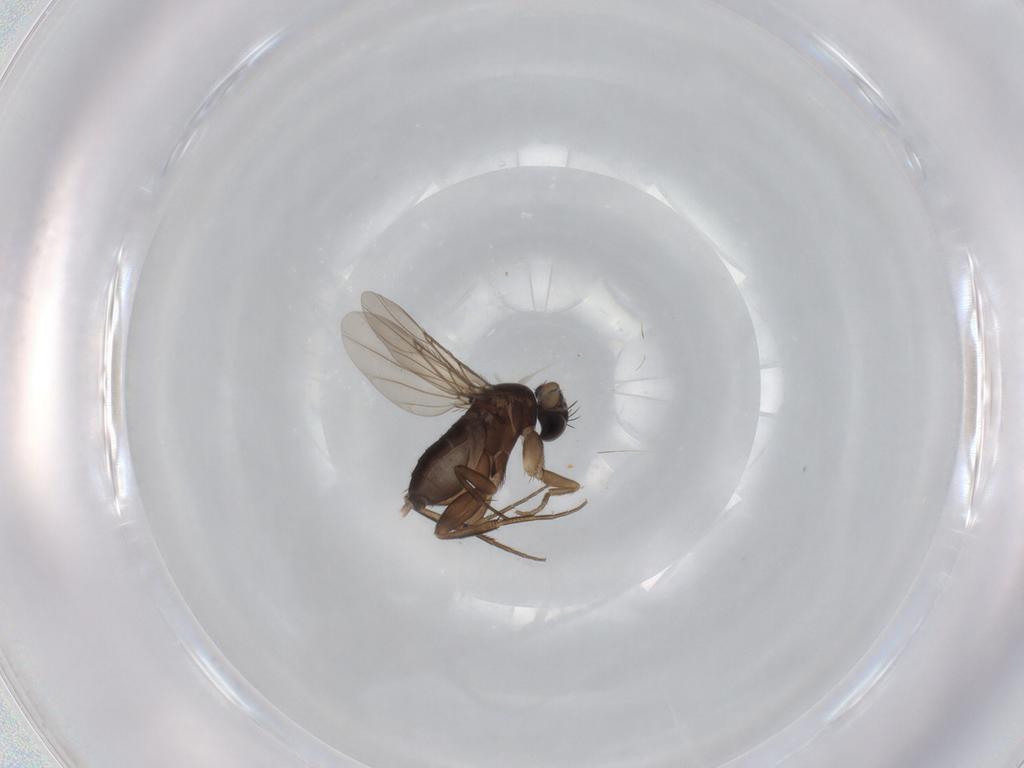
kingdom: Animalia
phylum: Arthropoda
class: Insecta
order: Diptera
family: Phoridae
